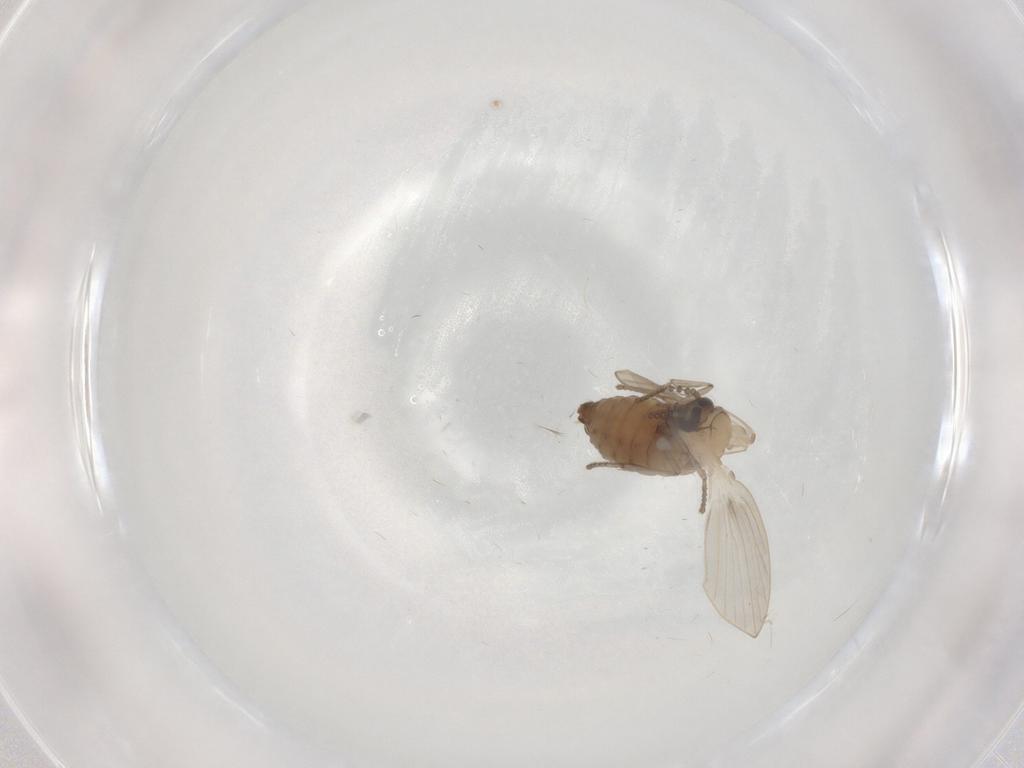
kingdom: Animalia
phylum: Arthropoda
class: Insecta
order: Diptera
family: Psychodidae
